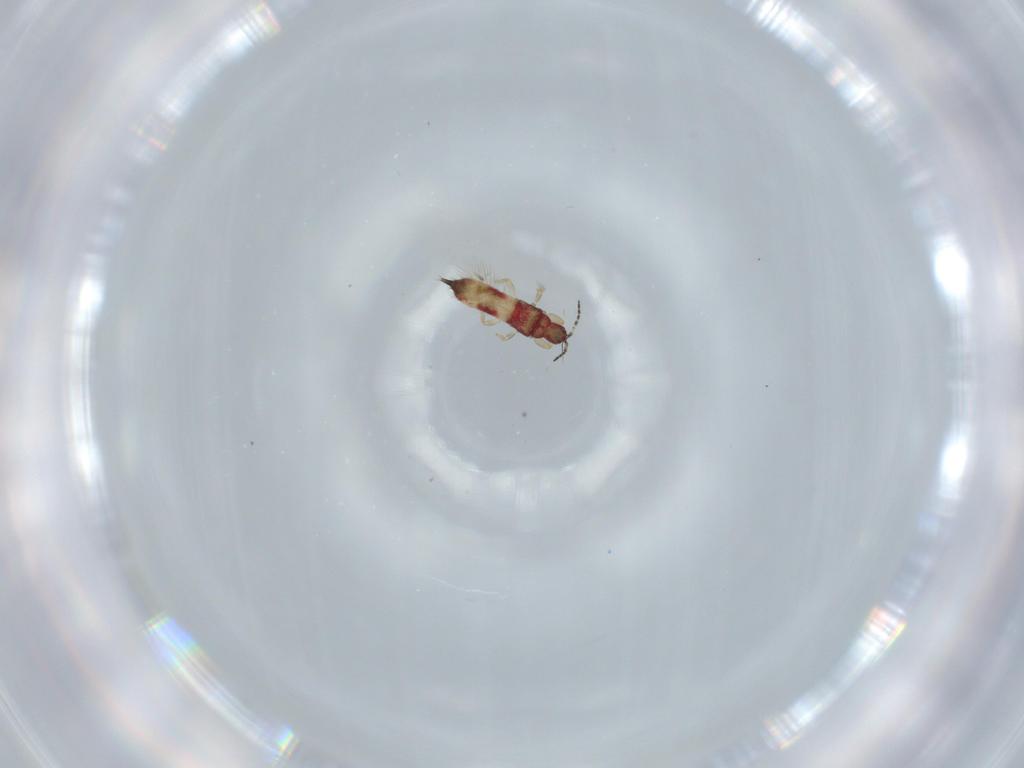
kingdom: Animalia
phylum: Arthropoda
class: Insecta
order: Thysanoptera
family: Phlaeothripidae
